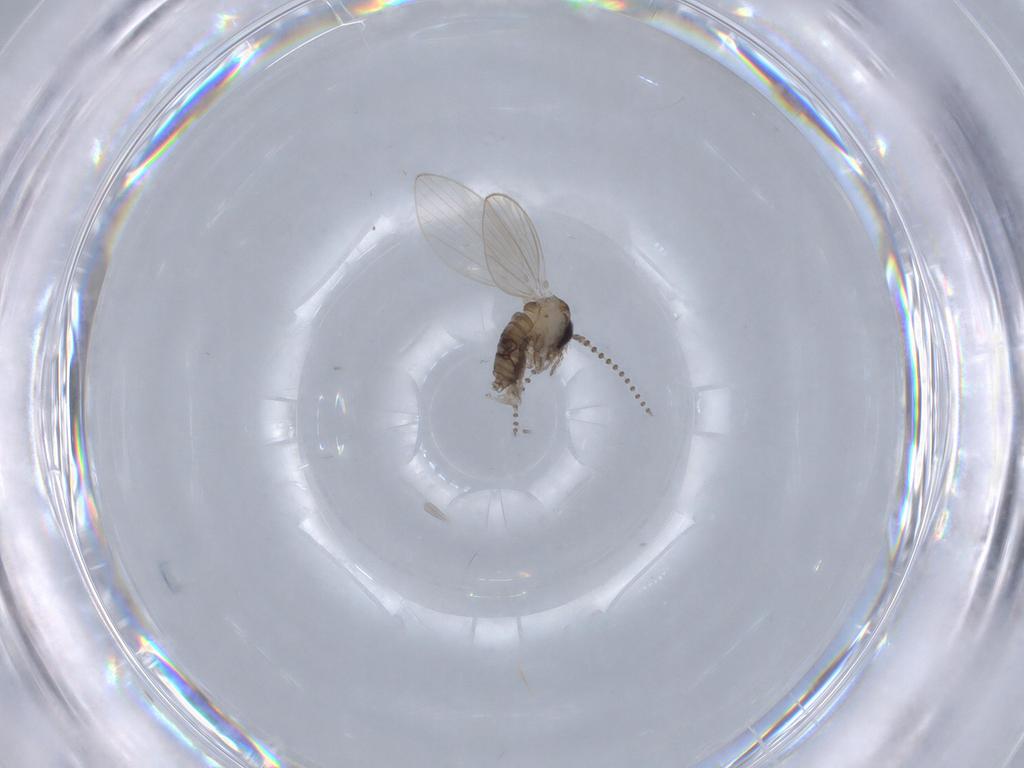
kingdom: Animalia
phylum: Arthropoda
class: Insecta
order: Diptera
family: Psychodidae
